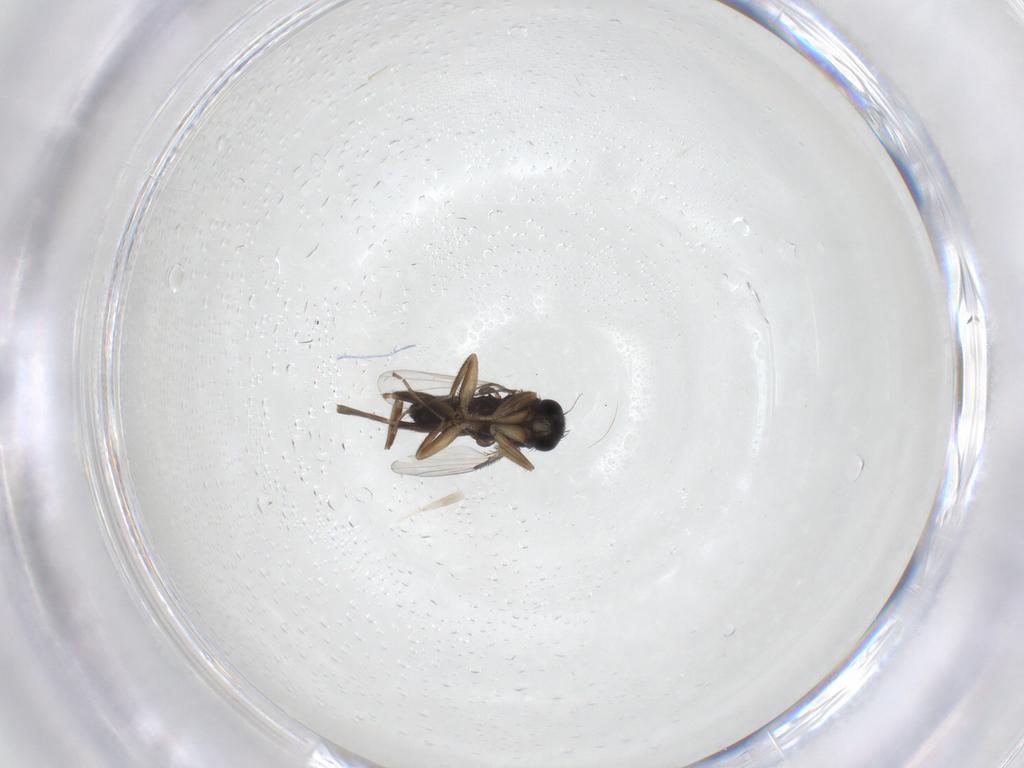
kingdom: Animalia
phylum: Arthropoda
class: Insecta
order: Diptera
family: Phoridae
